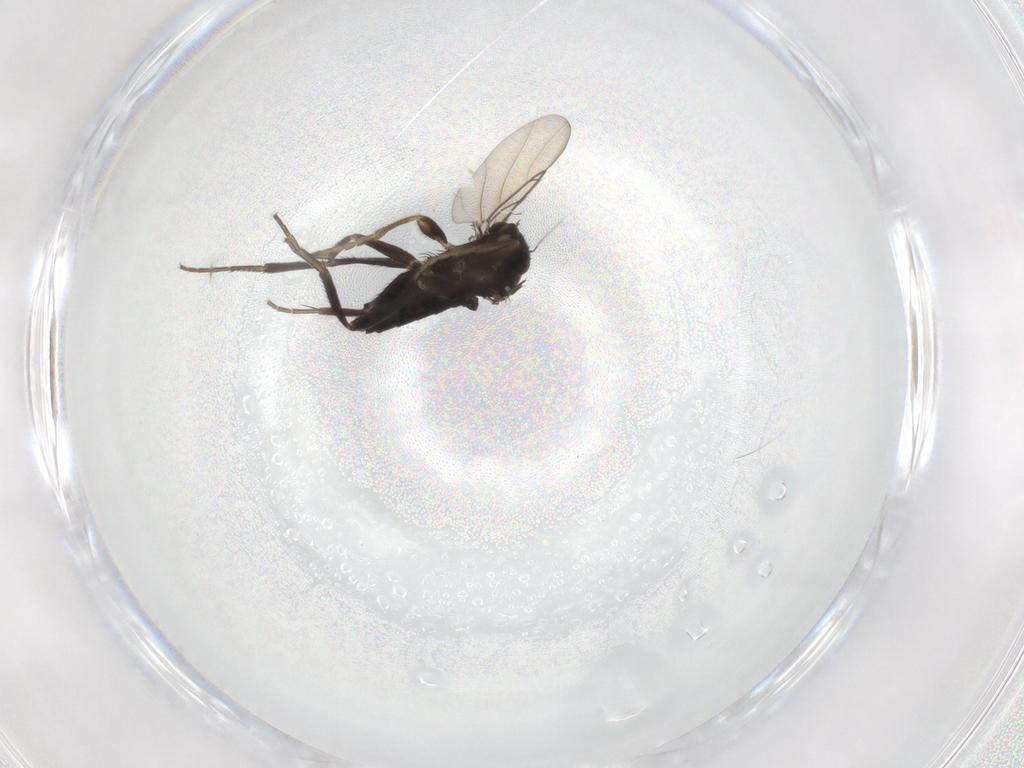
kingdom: Animalia
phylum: Arthropoda
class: Insecta
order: Diptera
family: Phoridae
